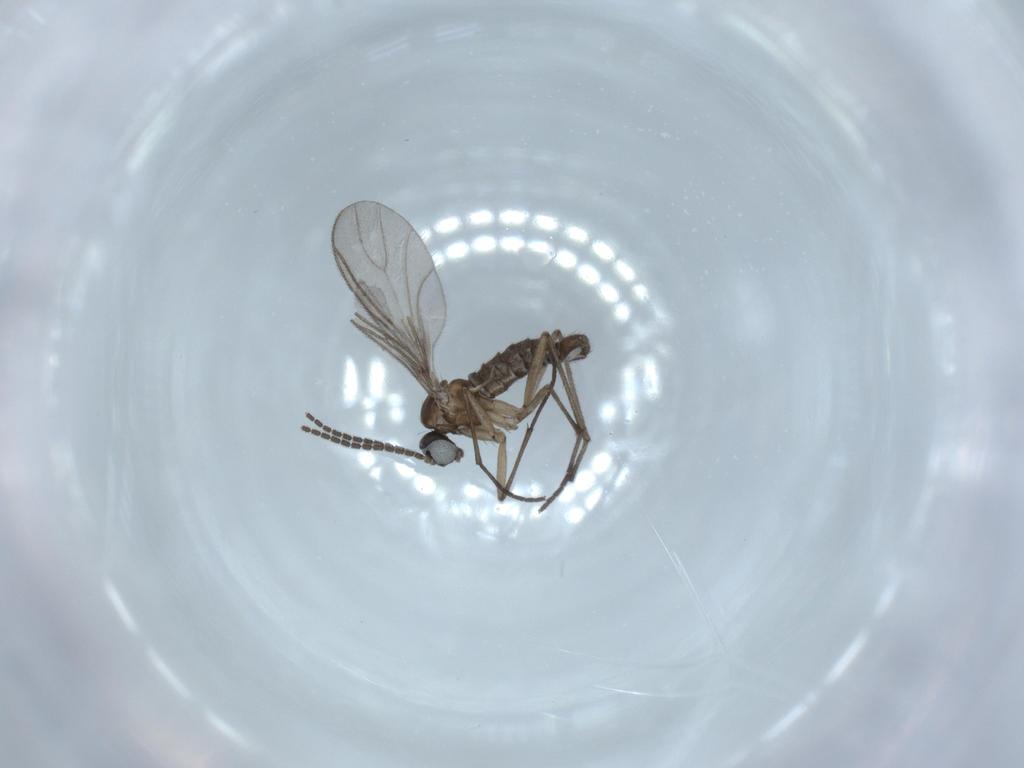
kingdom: Animalia
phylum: Arthropoda
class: Insecta
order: Diptera
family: Sciaridae
